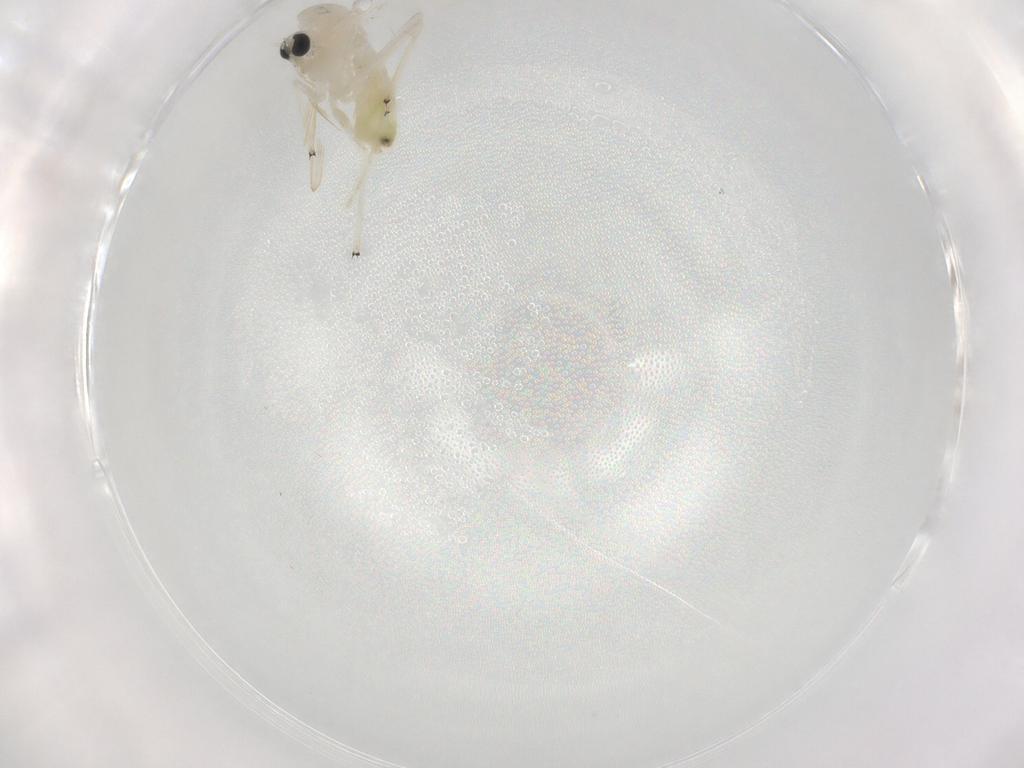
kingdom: Animalia
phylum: Arthropoda
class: Insecta
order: Diptera
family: Chironomidae
